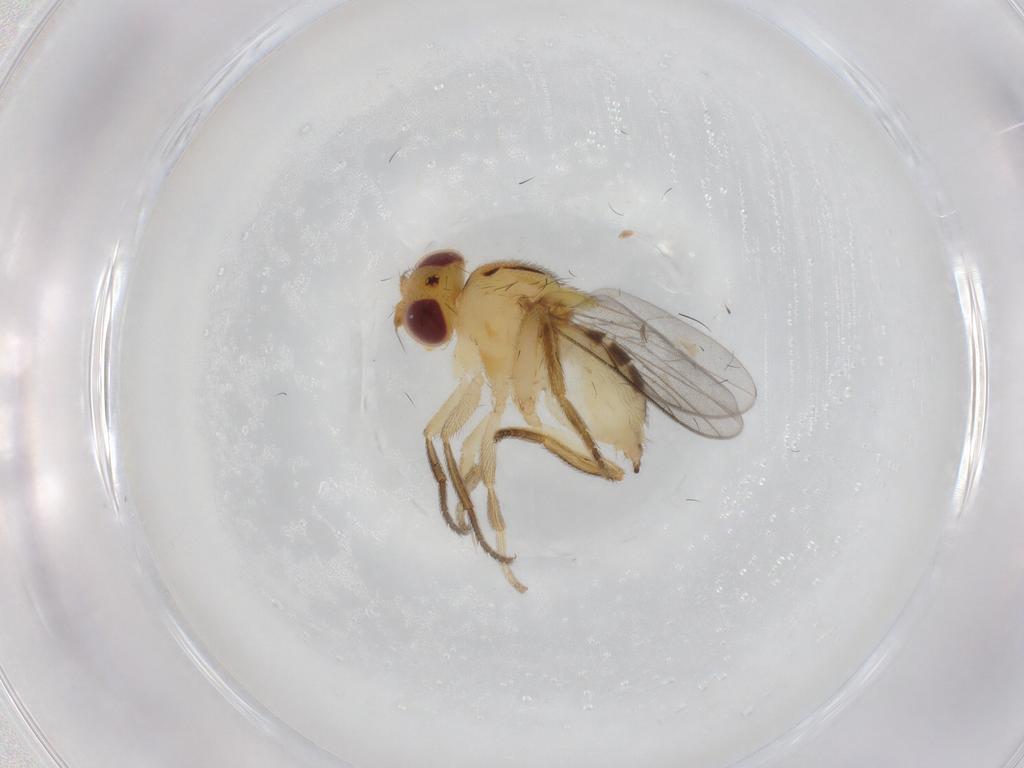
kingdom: Animalia
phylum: Arthropoda
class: Insecta
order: Diptera
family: Chloropidae
